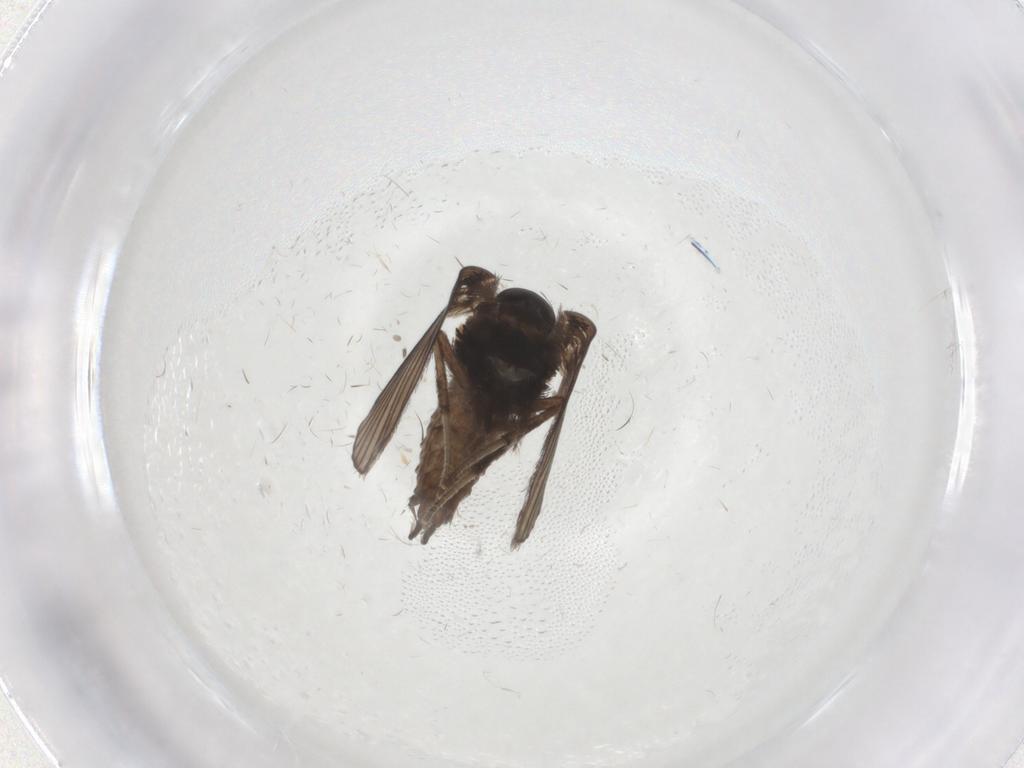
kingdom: Animalia
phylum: Arthropoda
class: Insecta
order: Diptera
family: Psychodidae
